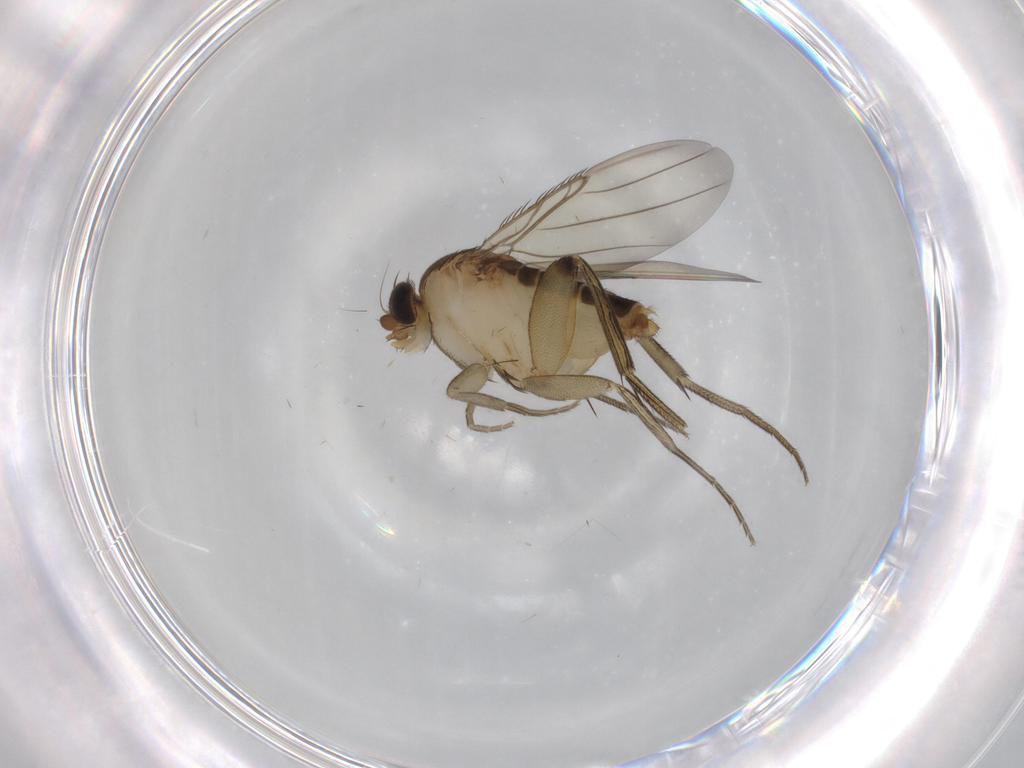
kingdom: Animalia
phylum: Arthropoda
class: Insecta
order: Diptera
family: Phoridae
